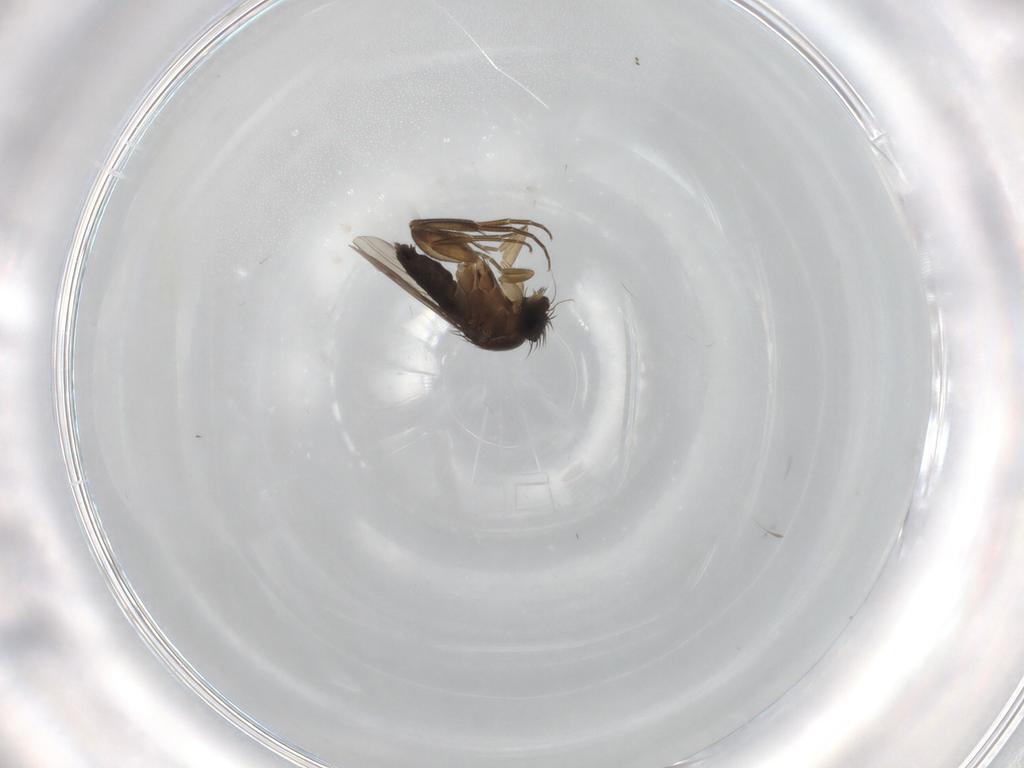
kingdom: Animalia
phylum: Arthropoda
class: Insecta
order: Diptera
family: Phoridae
